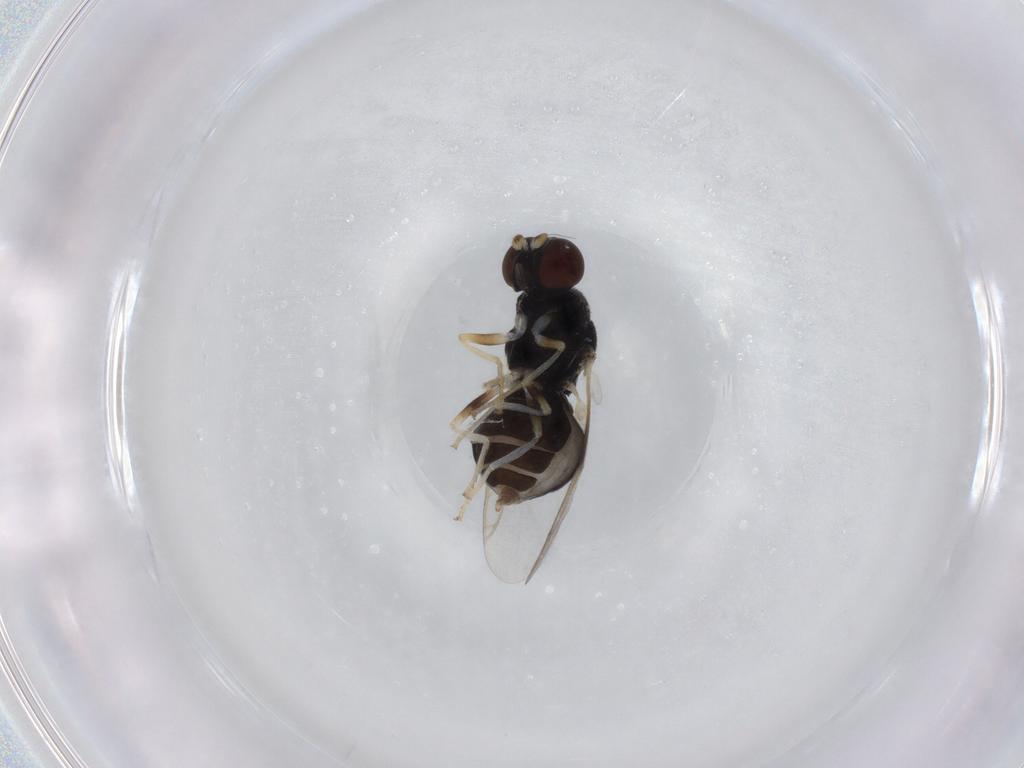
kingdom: Animalia
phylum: Arthropoda
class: Insecta
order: Diptera
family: Stratiomyidae
